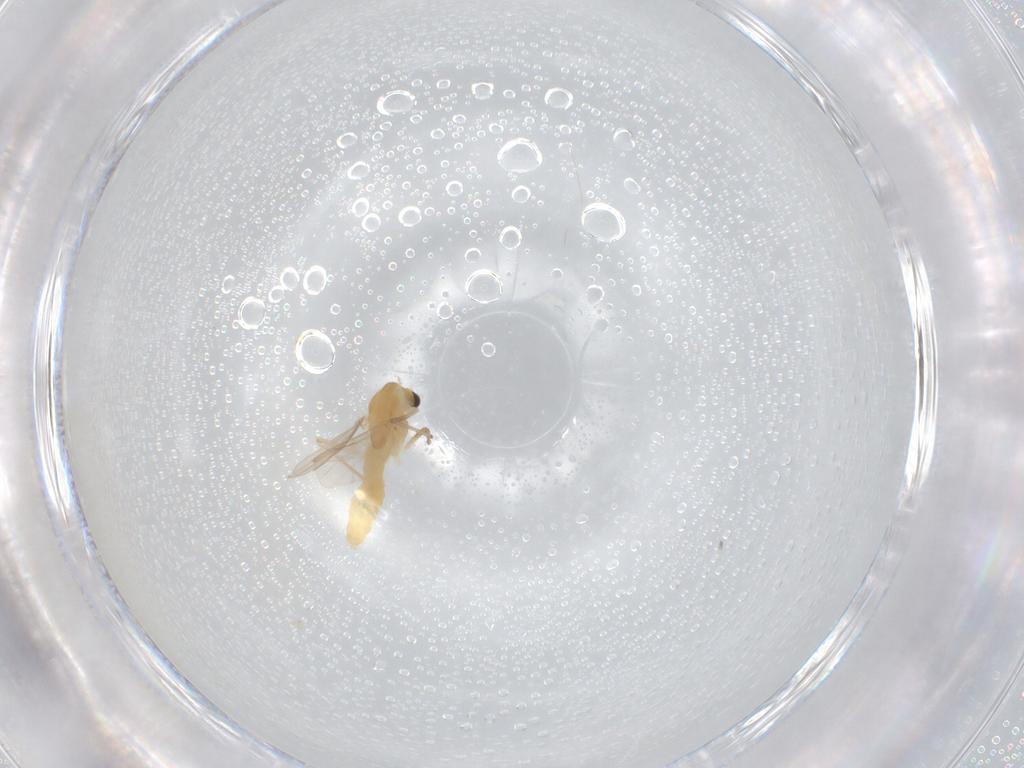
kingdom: Animalia
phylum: Arthropoda
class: Insecta
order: Diptera
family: Chironomidae
